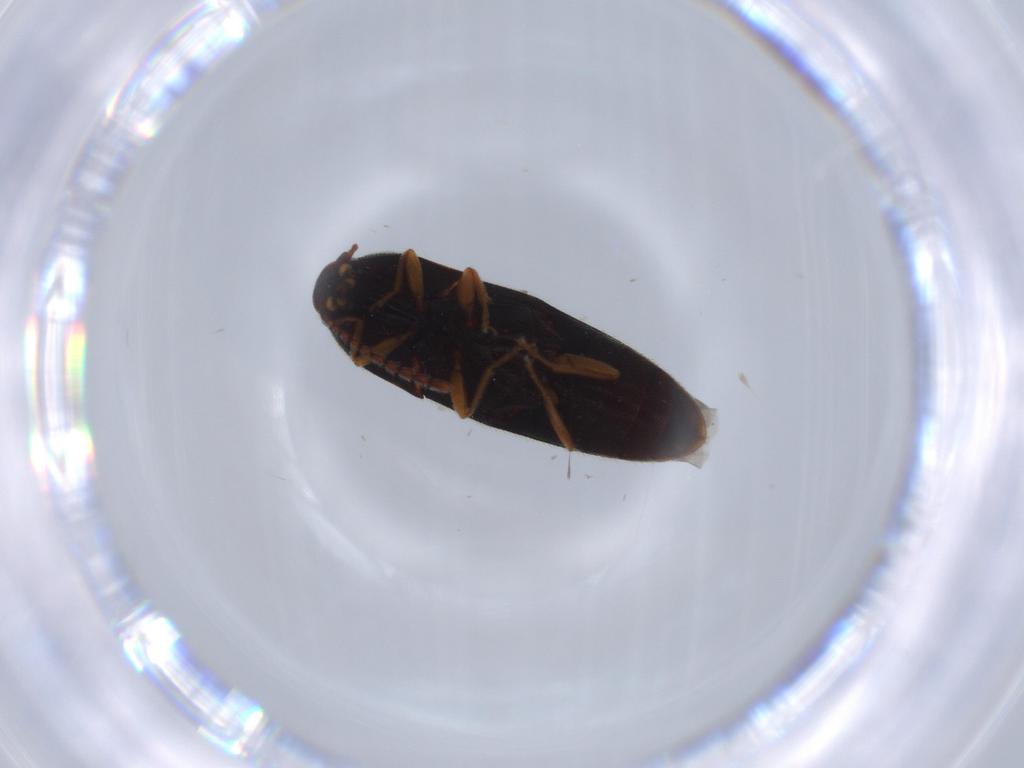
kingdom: Animalia
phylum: Arthropoda
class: Insecta
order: Coleoptera
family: Elateridae
